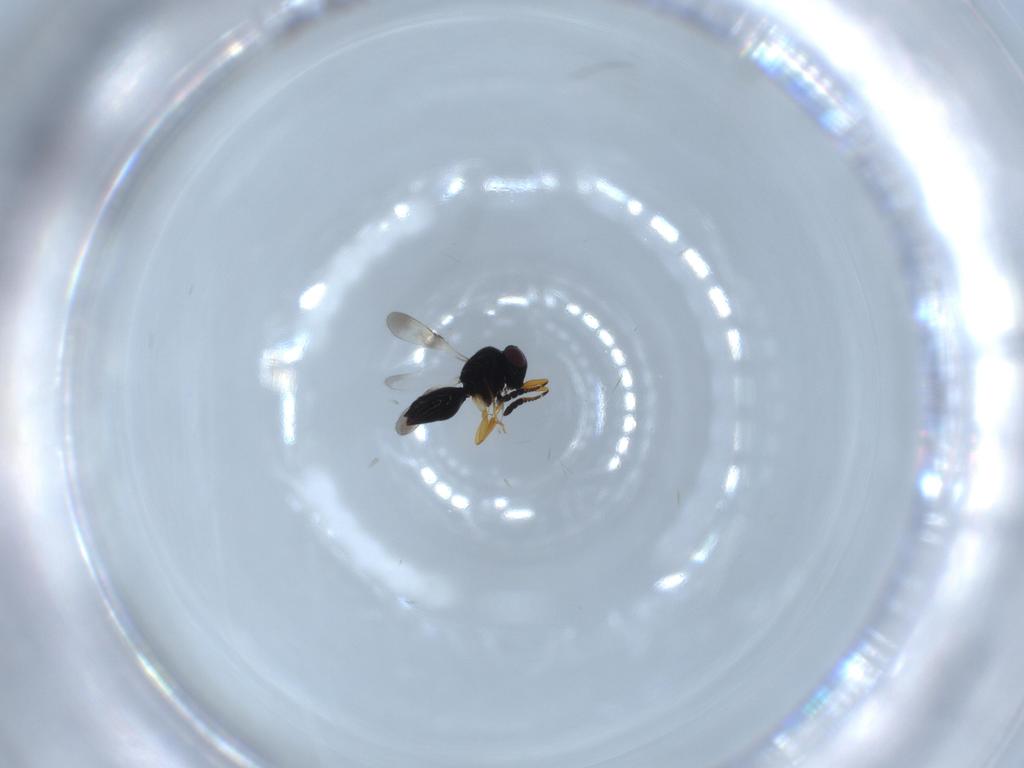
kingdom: Animalia
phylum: Arthropoda
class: Insecta
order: Hymenoptera
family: Ceraphronidae
